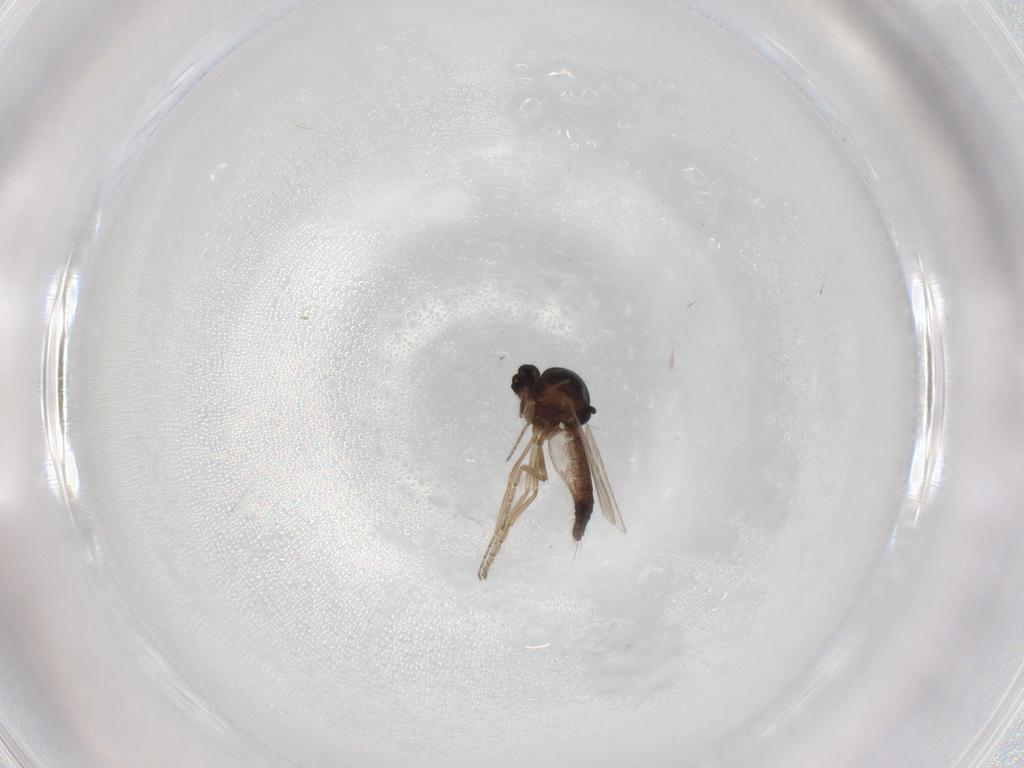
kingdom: Animalia
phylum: Arthropoda
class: Insecta
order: Diptera
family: Ceratopogonidae
